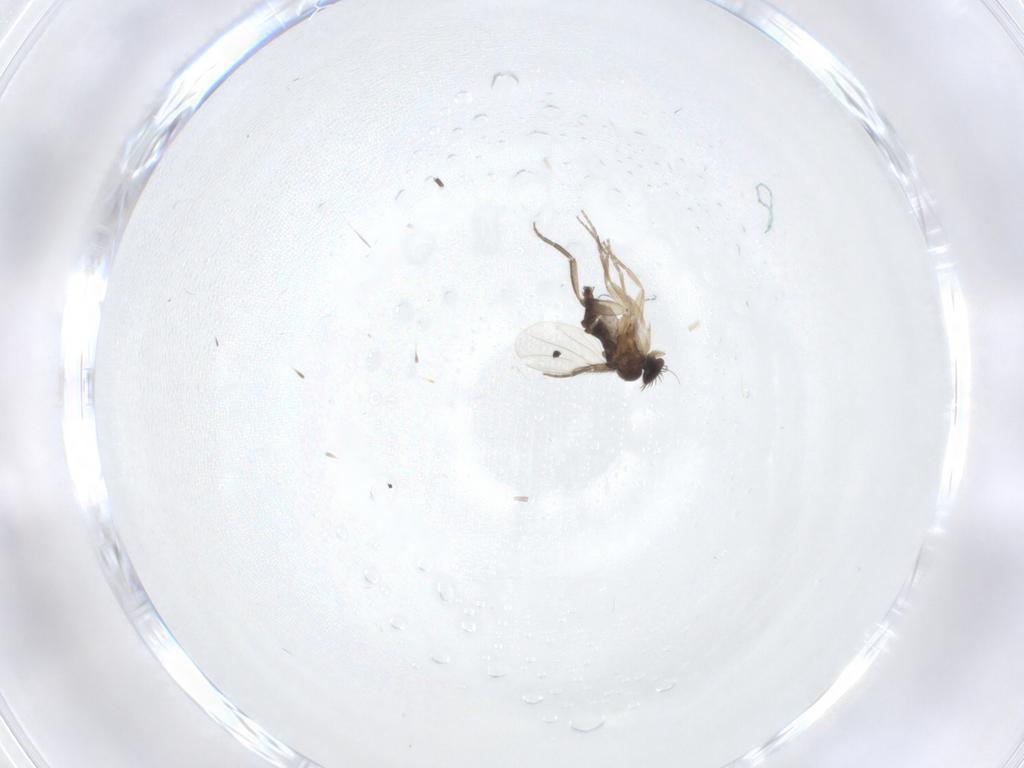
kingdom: Animalia
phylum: Arthropoda
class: Insecta
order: Diptera
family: Phoridae
